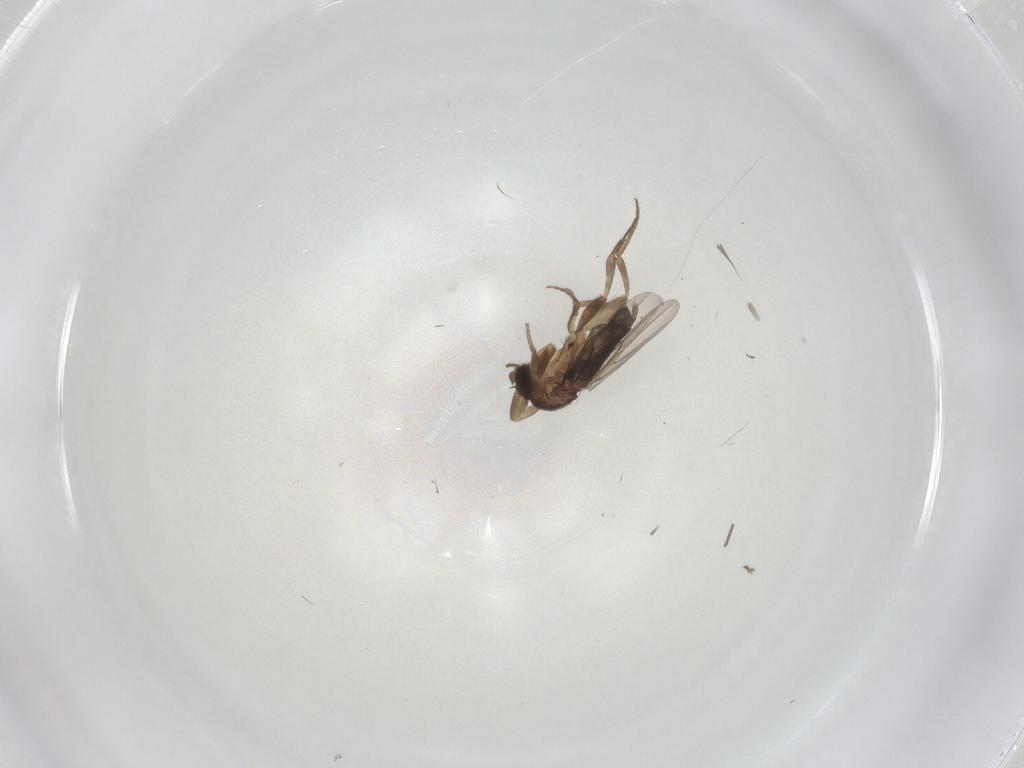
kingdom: Animalia
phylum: Arthropoda
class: Insecta
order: Diptera
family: Phoridae
